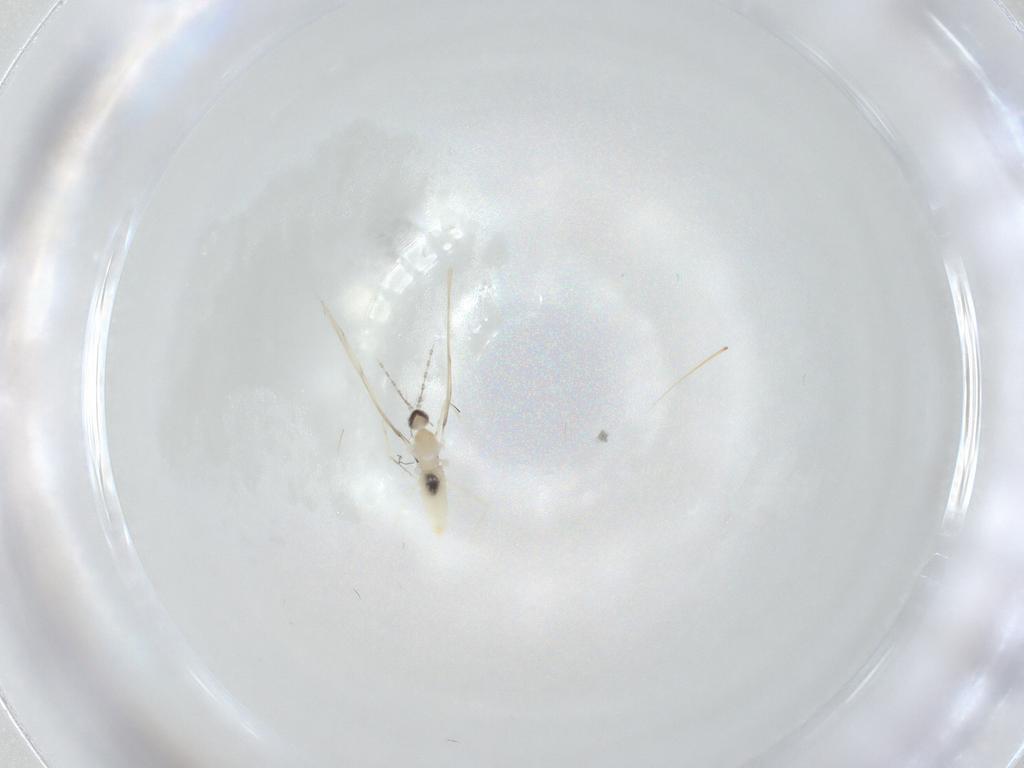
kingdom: Animalia
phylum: Arthropoda
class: Insecta
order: Diptera
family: Cecidomyiidae
